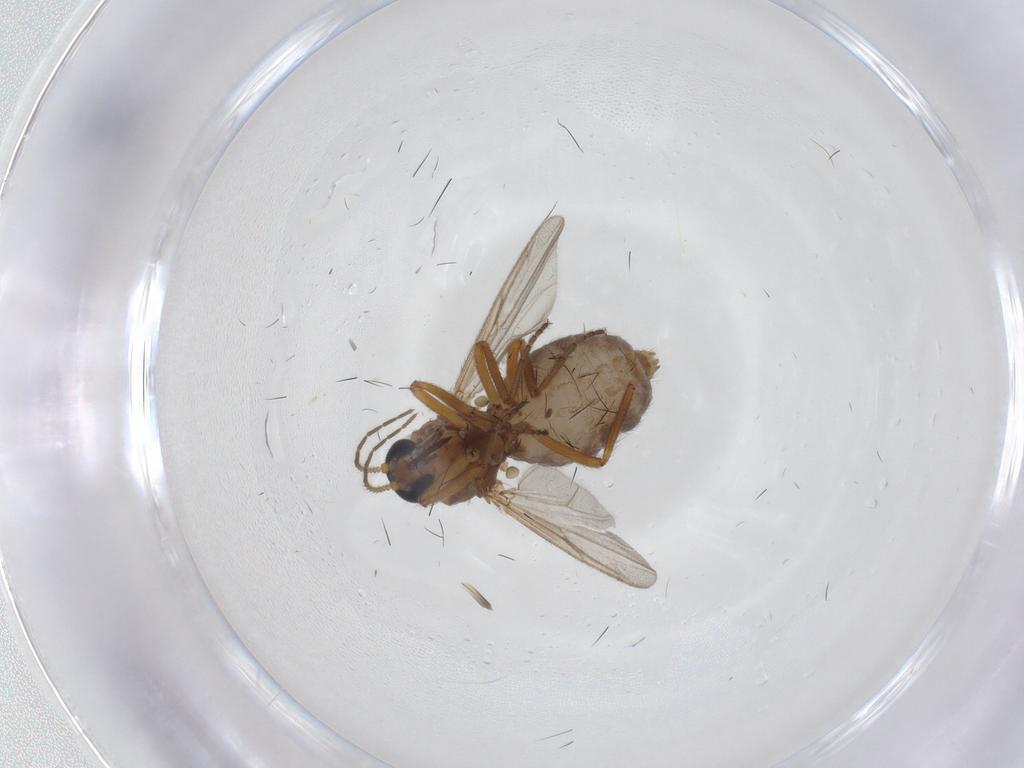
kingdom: Animalia
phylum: Arthropoda
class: Insecta
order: Diptera
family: Ceratopogonidae
